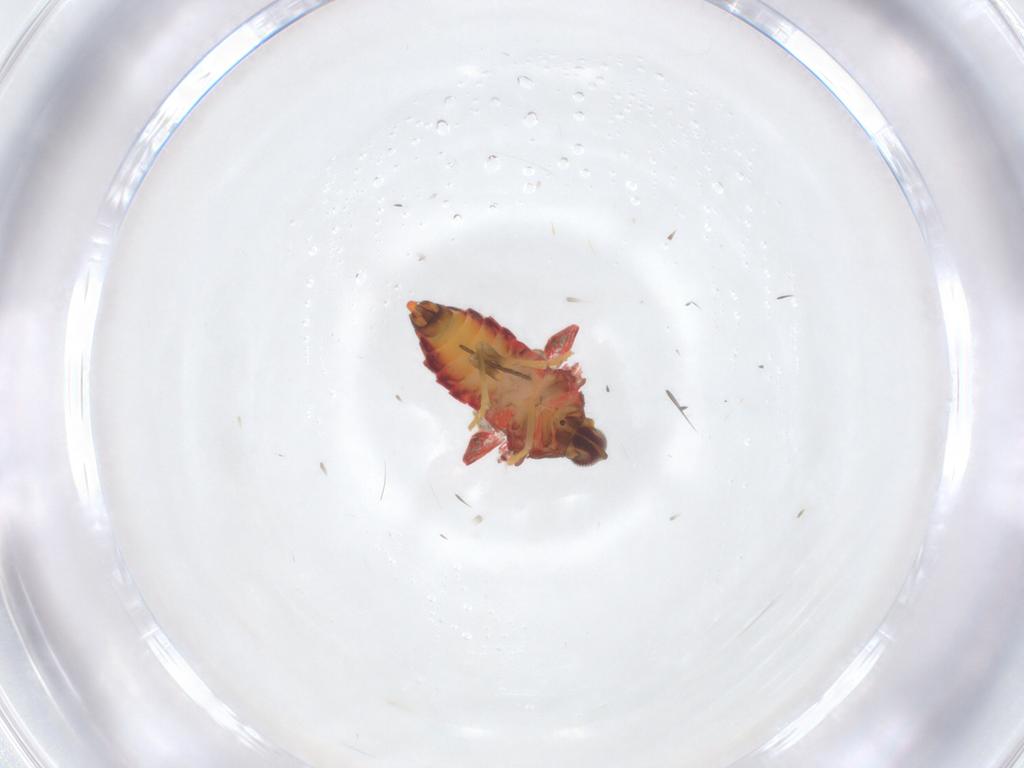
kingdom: Animalia
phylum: Arthropoda
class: Insecta
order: Hemiptera
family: Derbidae
